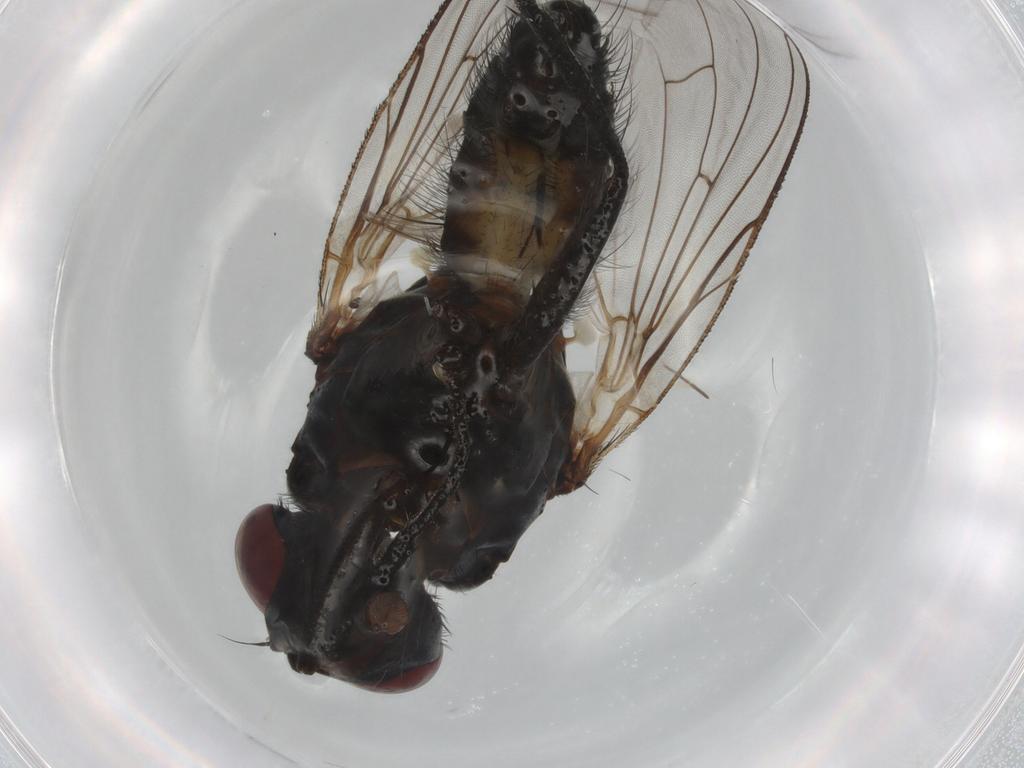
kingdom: Animalia
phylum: Arthropoda
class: Insecta
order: Diptera
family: Anthomyiidae
